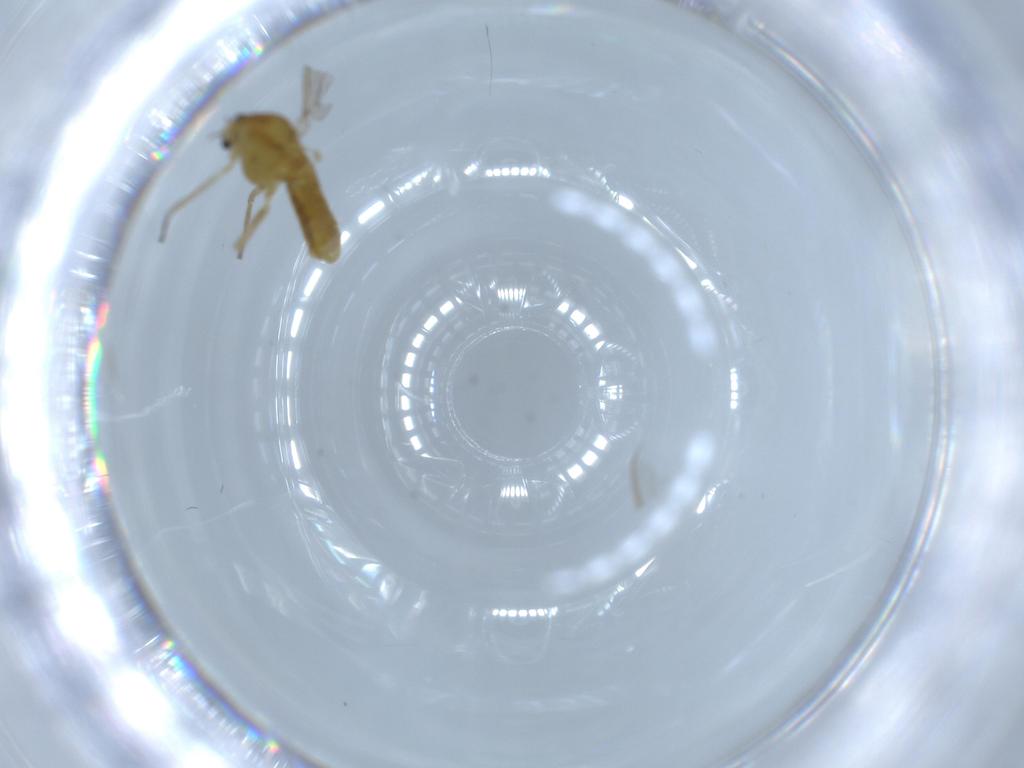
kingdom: Animalia
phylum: Arthropoda
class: Insecta
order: Diptera
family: Chironomidae
